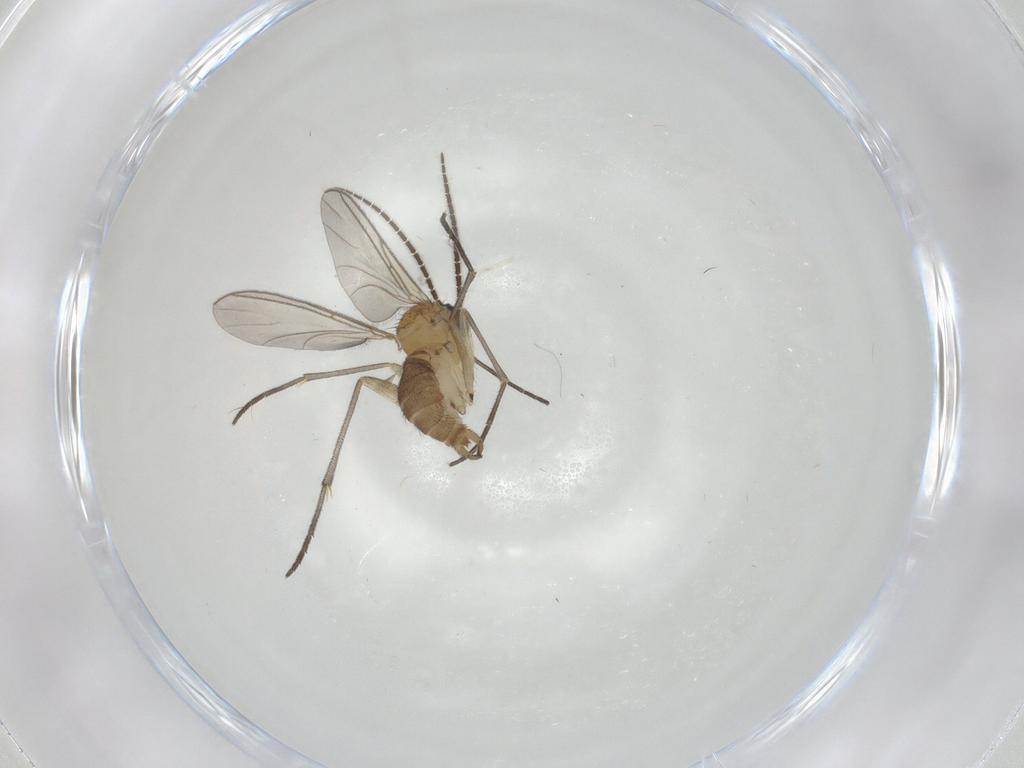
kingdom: Animalia
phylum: Arthropoda
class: Insecta
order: Diptera
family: Sciaridae
